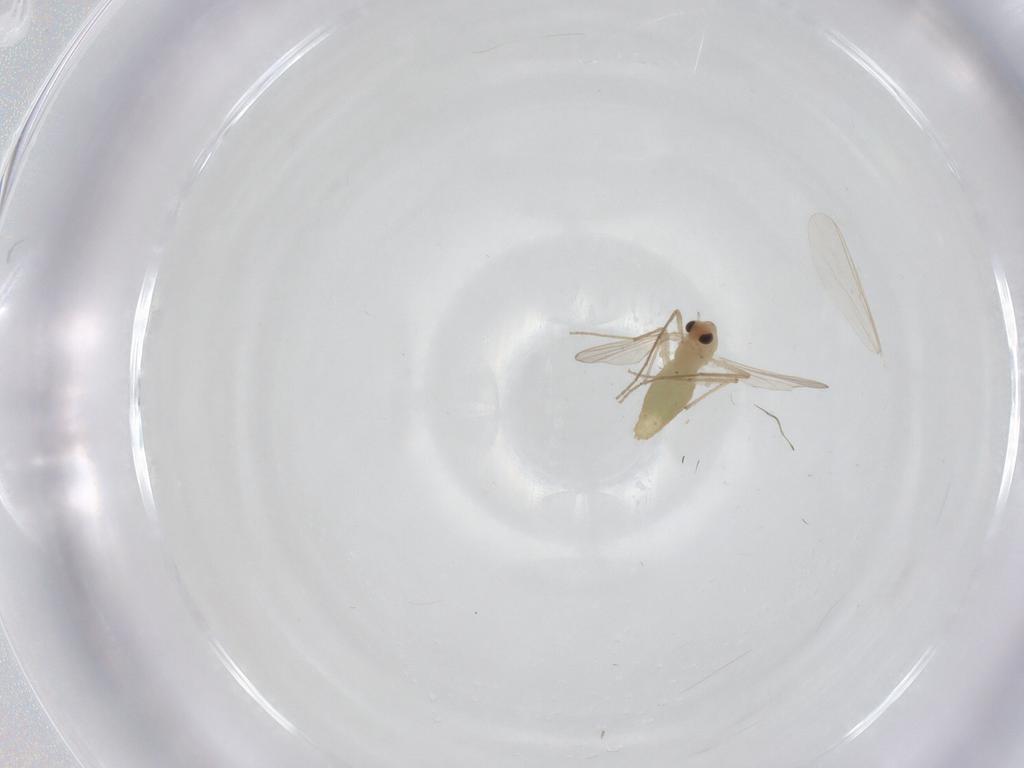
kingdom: Animalia
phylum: Arthropoda
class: Insecta
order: Diptera
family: Chironomidae
